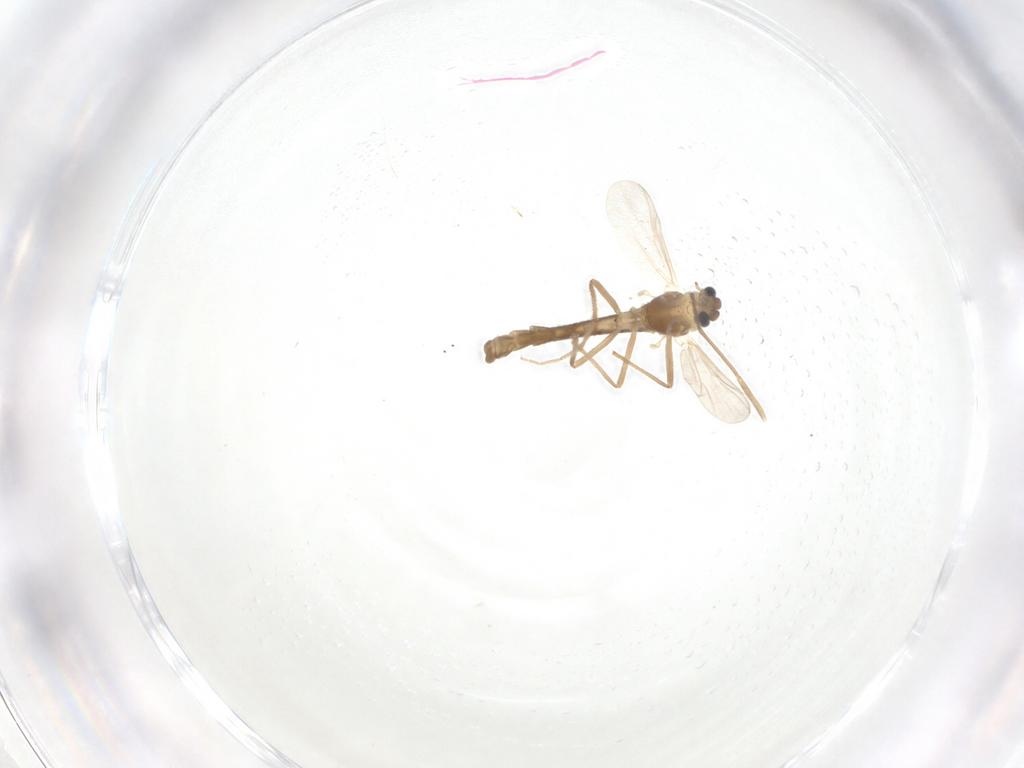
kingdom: Animalia
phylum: Arthropoda
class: Insecta
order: Diptera
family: Cecidomyiidae
